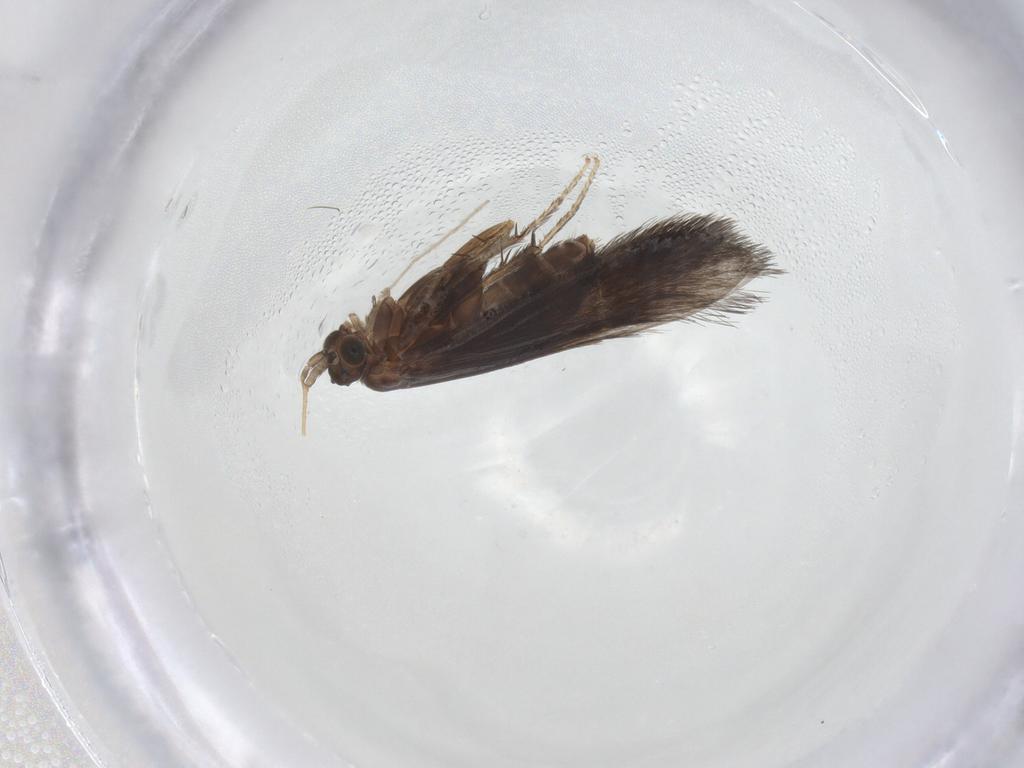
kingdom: Animalia
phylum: Arthropoda
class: Insecta
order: Trichoptera
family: Glossosomatidae
